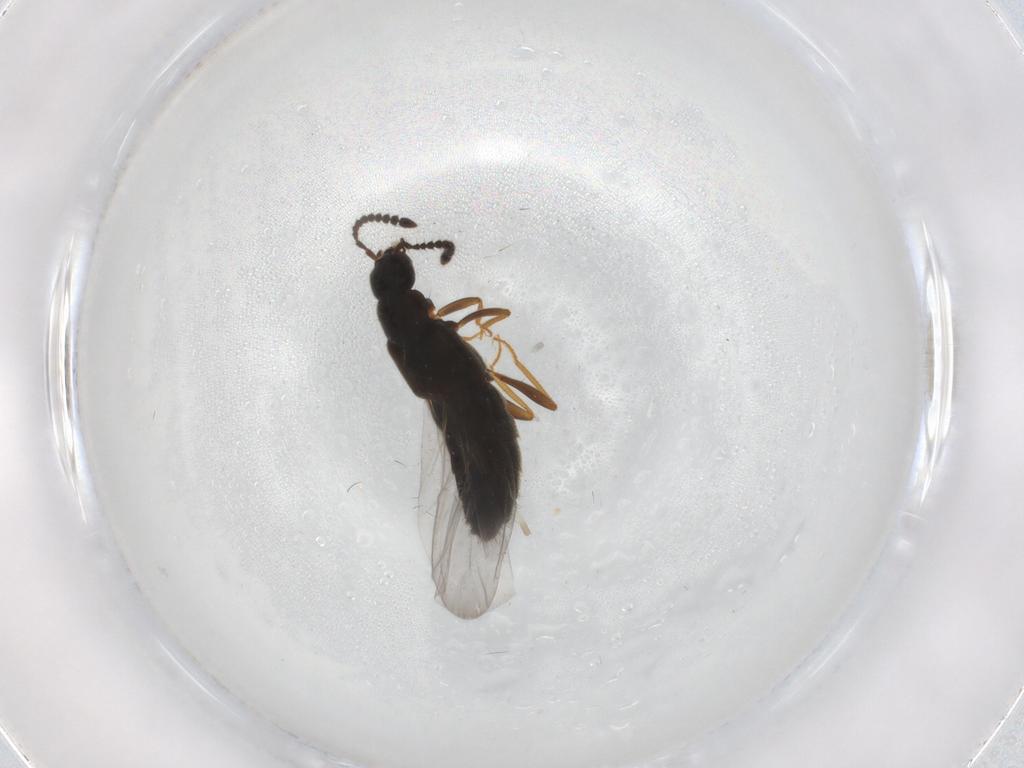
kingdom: Animalia
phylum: Arthropoda
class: Insecta
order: Coleoptera
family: Staphylinidae
